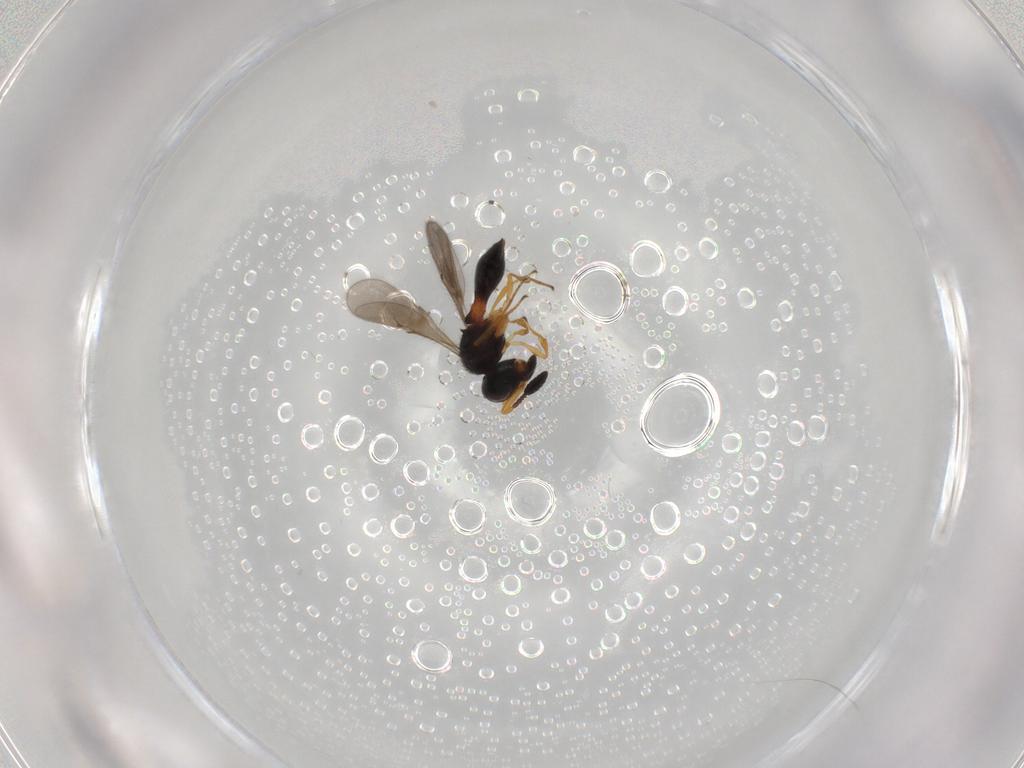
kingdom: Animalia
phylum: Arthropoda
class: Insecta
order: Hymenoptera
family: Scelionidae
